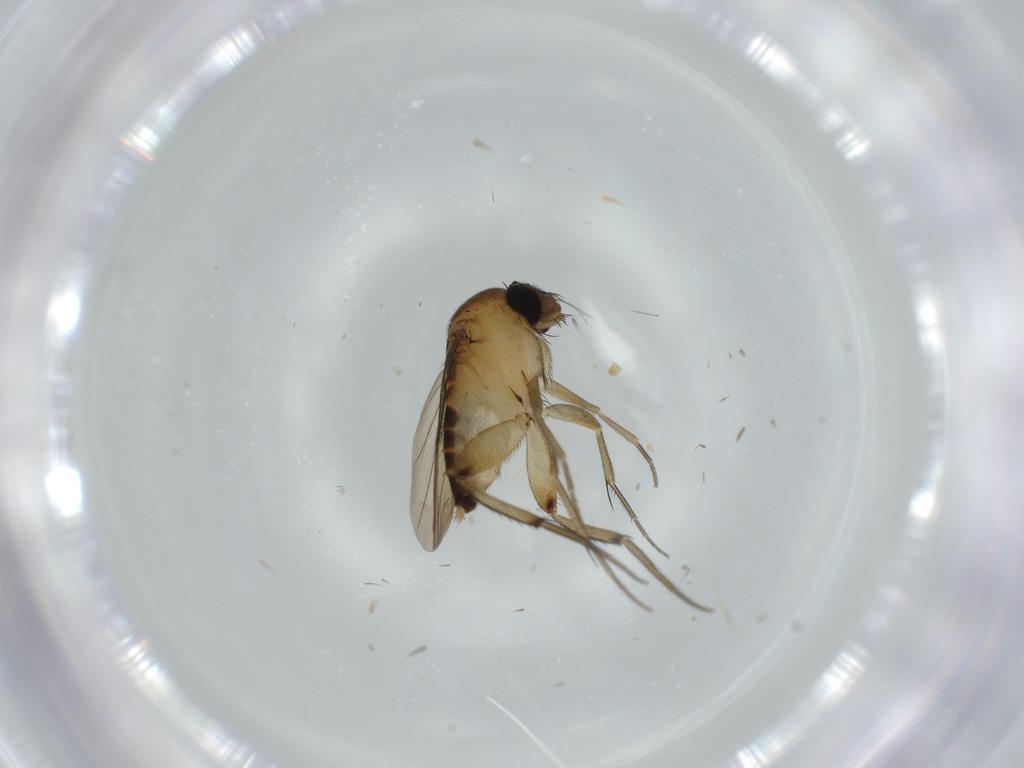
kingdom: Animalia
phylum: Arthropoda
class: Insecta
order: Diptera
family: Phoridae
